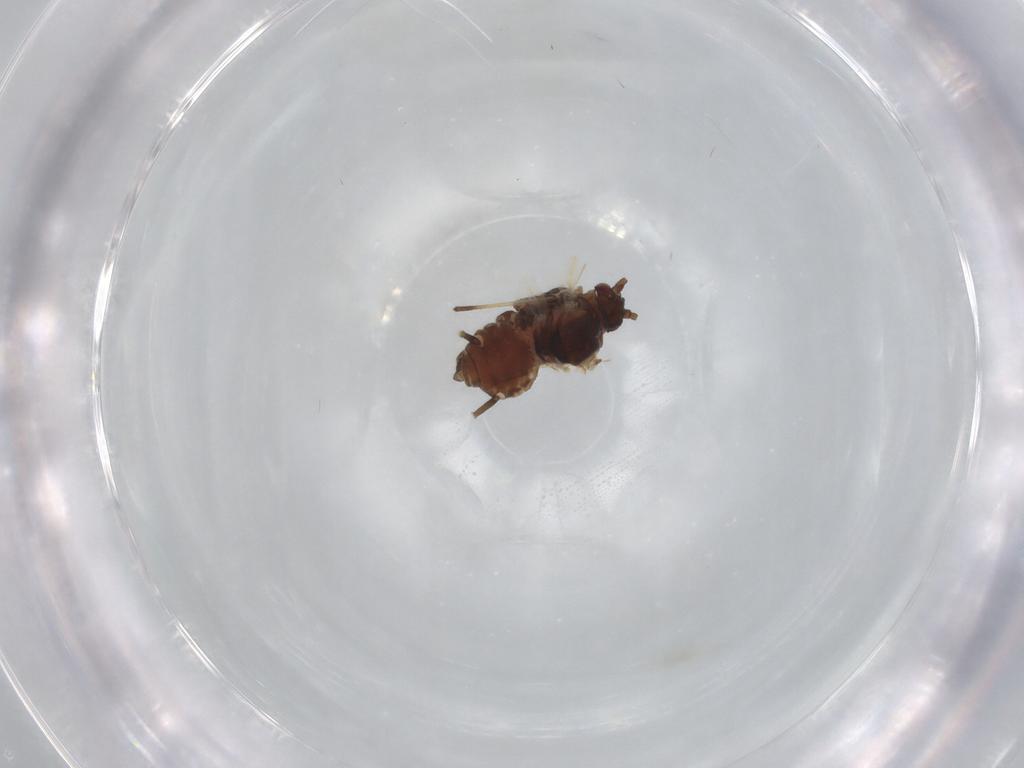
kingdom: Animalia
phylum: Arthropoda
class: Insecta
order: Hemiptera
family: Aphididae
